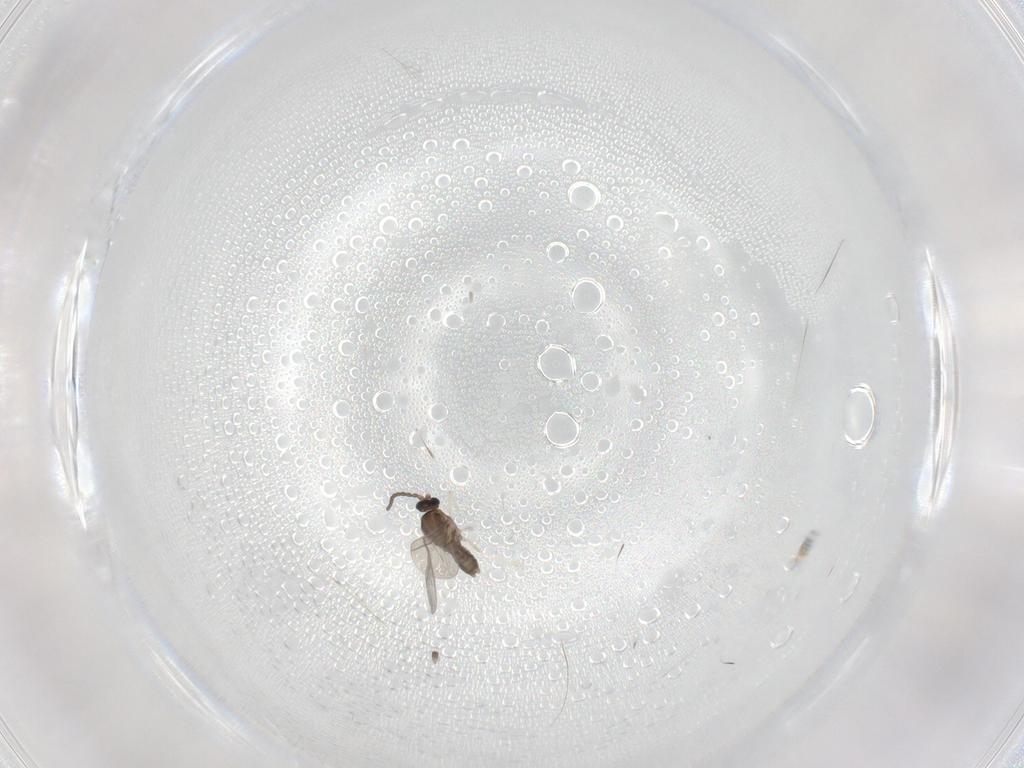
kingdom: Animalia
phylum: Arthropoda
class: Insecta
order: Diptera
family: Cecidomyiidae
